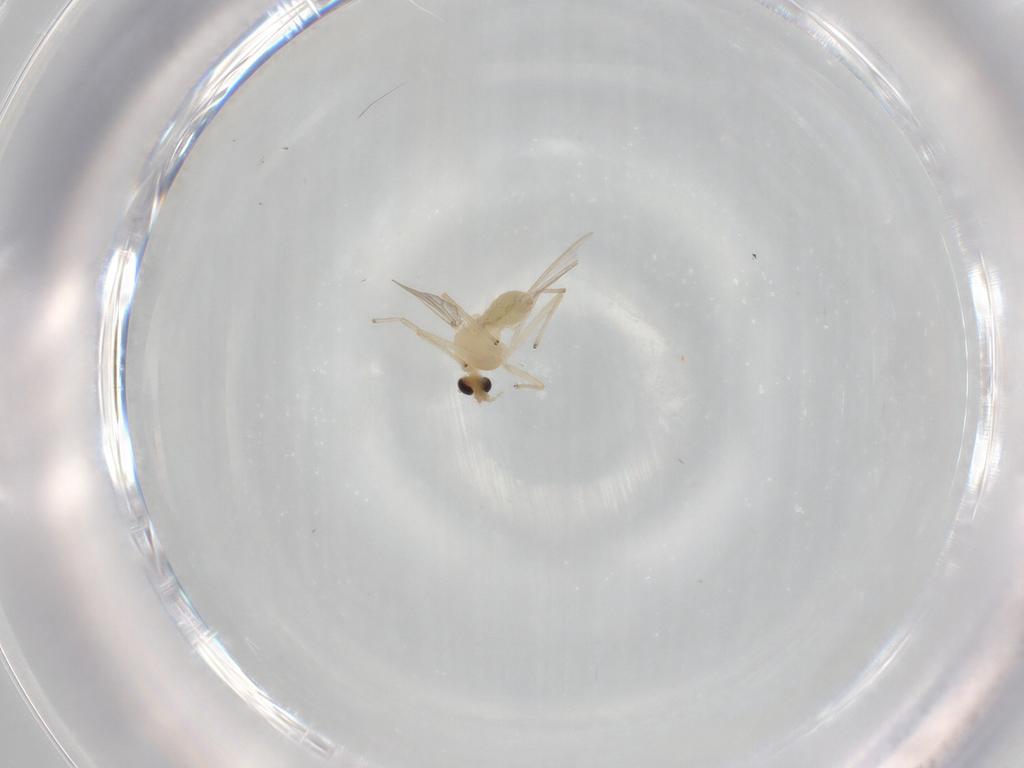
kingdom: Animalia
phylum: Arthropoda
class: Insecta
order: Diptera
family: Chironomidae
